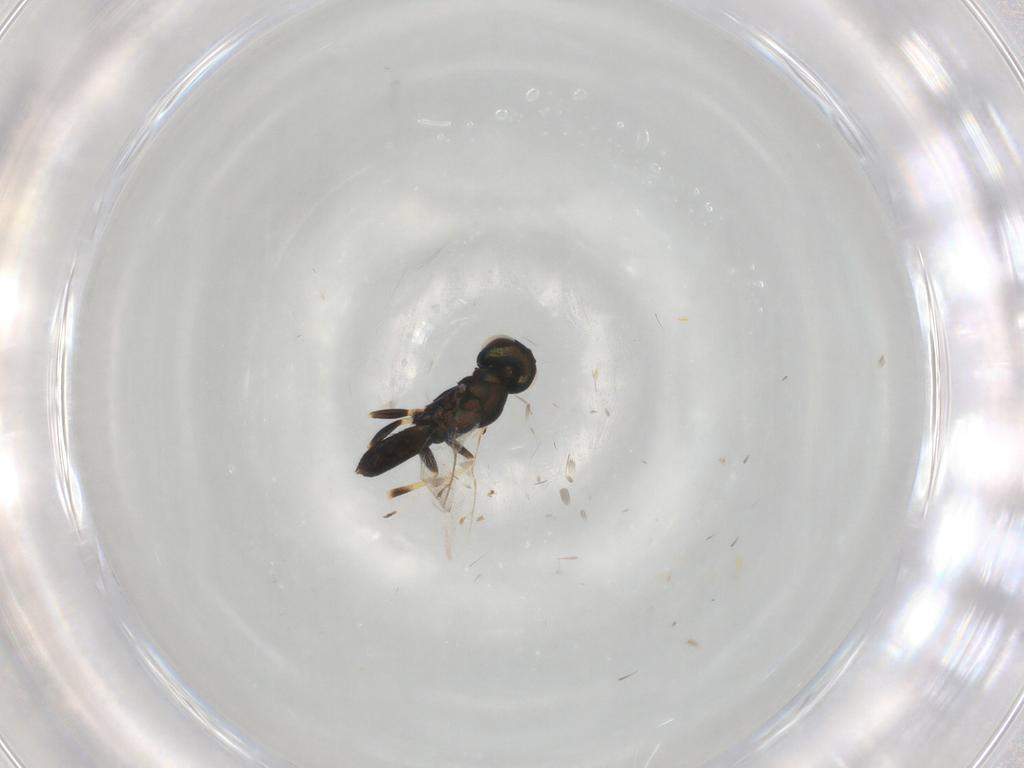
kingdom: Animalia
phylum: Arthropoda
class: Insecta
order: Hymenoptera
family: Eupelmidae
